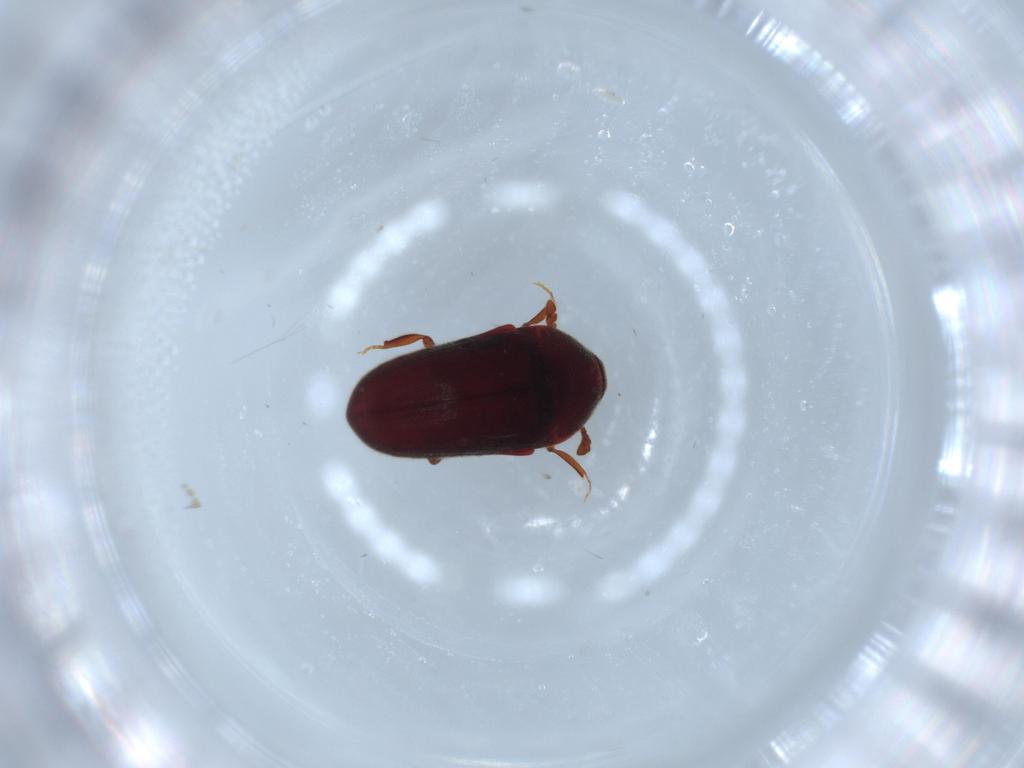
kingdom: Animalia
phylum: Arthropoda
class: Insecta
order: Coleoptera
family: Throscidae
